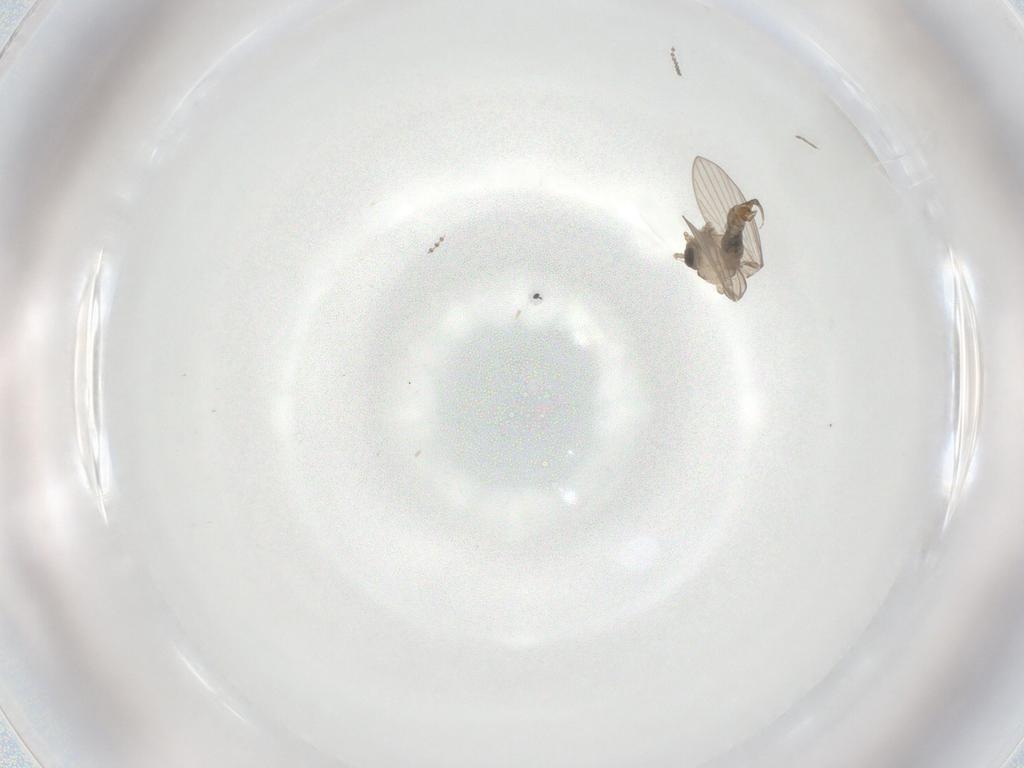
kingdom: Animalia
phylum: Arthropoda
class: Insecta
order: Diptera
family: Psychodidae
